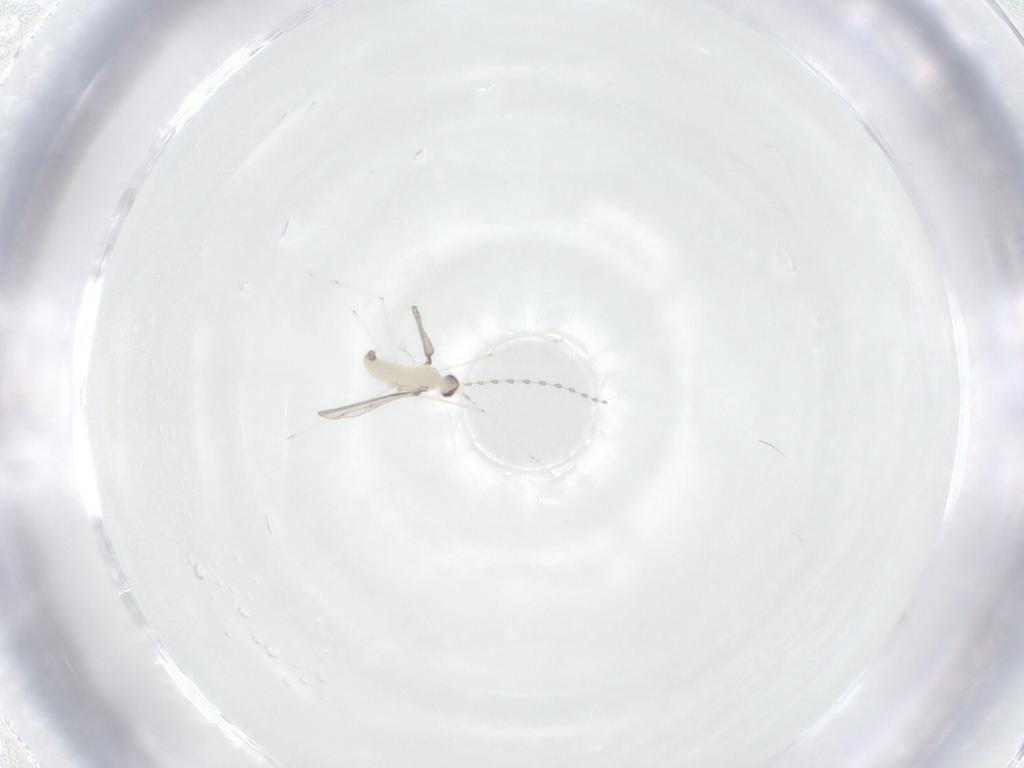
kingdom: Animalia
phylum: Arthropoda
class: Insecta
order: Diptera
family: Cecidomyiidae
